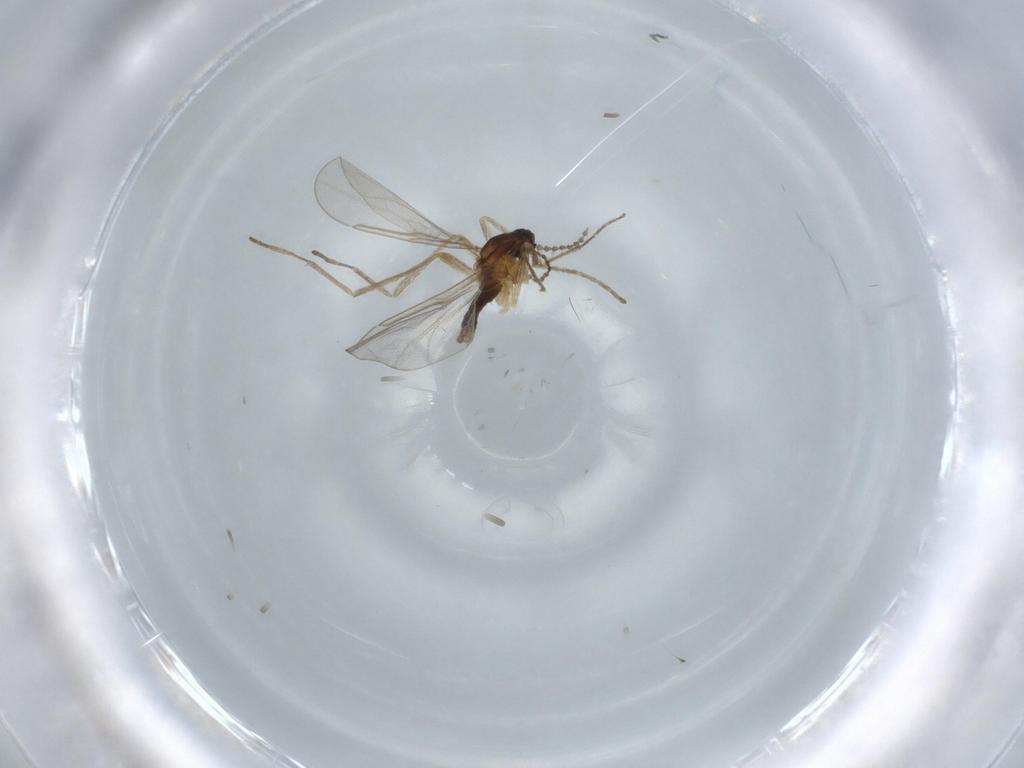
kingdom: Animalia
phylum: Arthropoda
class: Insecta
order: Diptera
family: Cecidomyiidae
